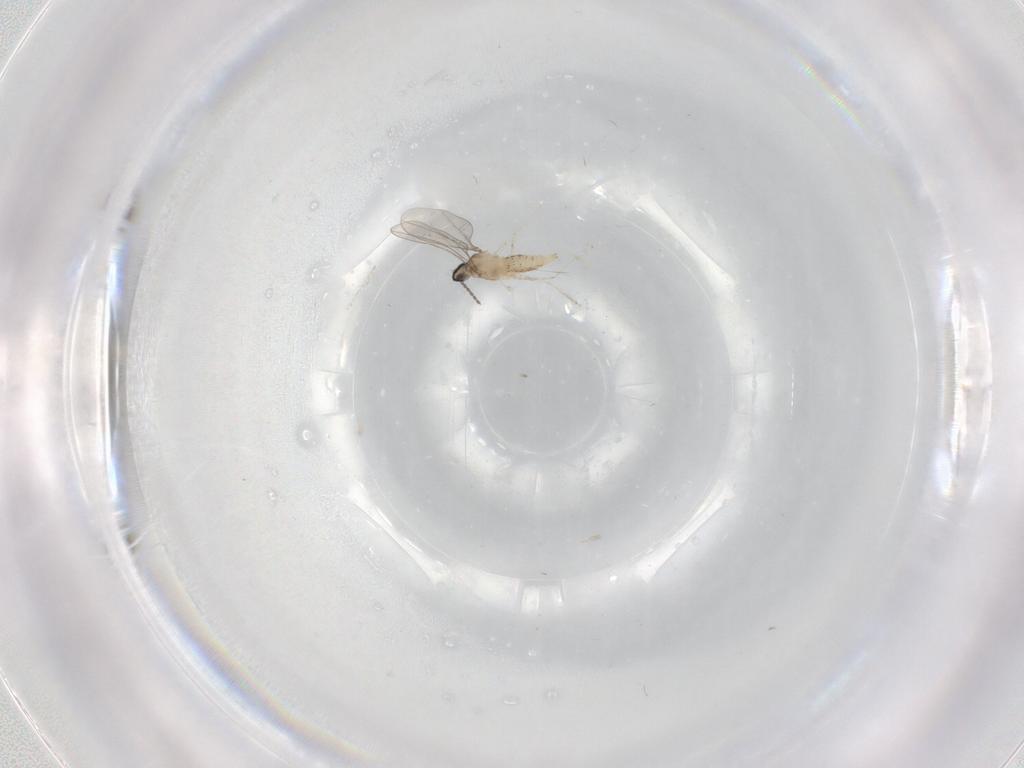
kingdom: Animalia
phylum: Arthropoda
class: Insecta
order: Diptera
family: Cecidomyiidae
